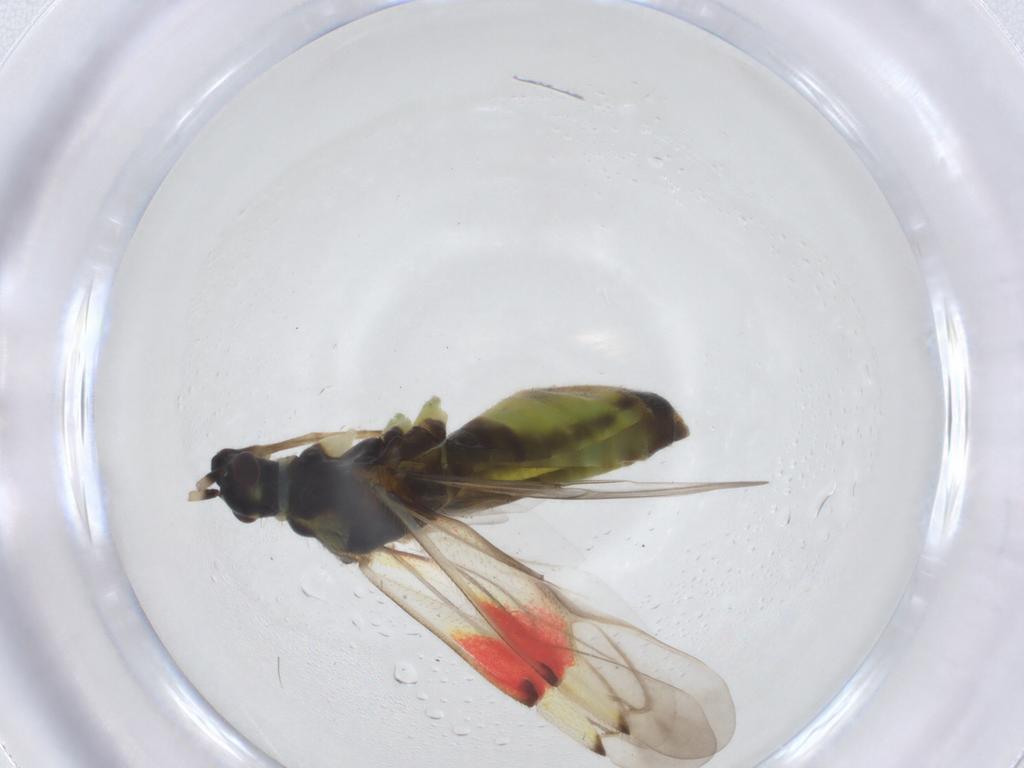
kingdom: Animalia
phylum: Arthropoda
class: Insecta
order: Hemiptera
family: Miridae
